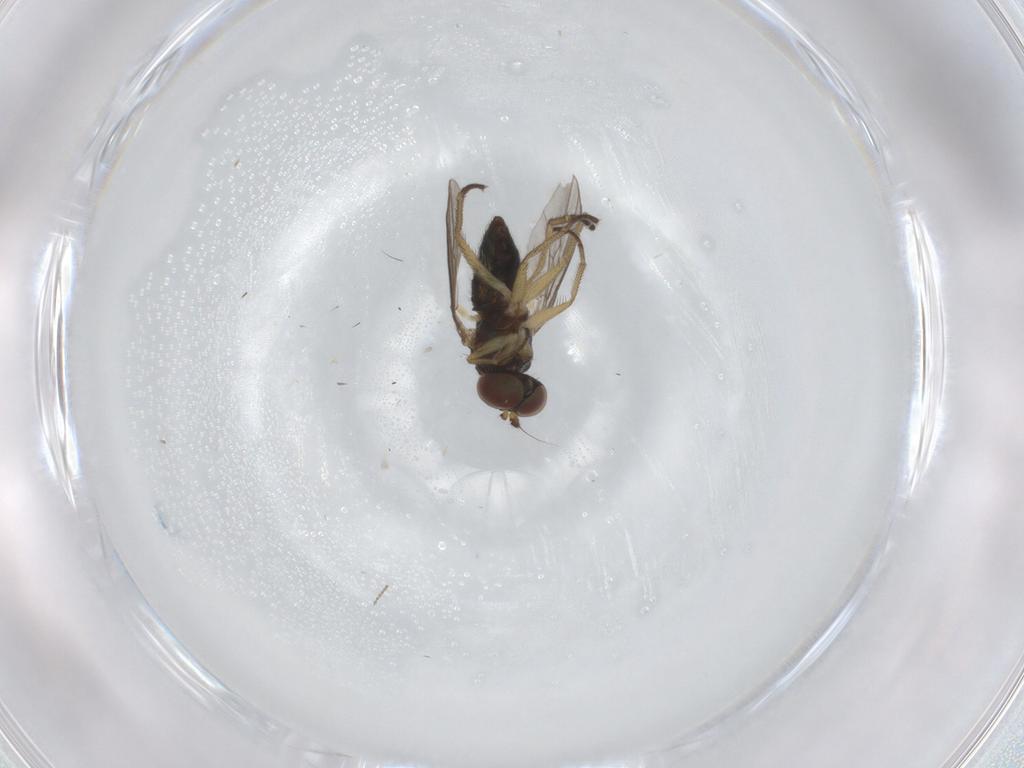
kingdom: Animalia
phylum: Arthropoda
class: Insecta
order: Diptera
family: Cecidomyiidae
